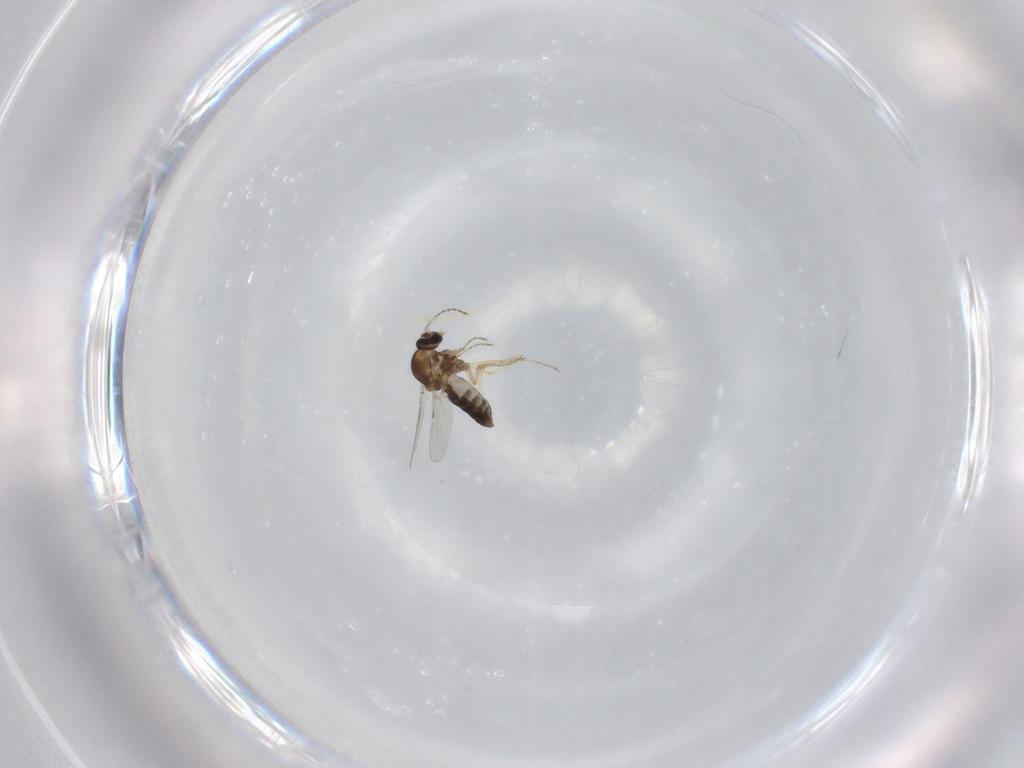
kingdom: Animalia
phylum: Arthropoda
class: Insecta
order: Diptera
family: Ceratopogonidae
